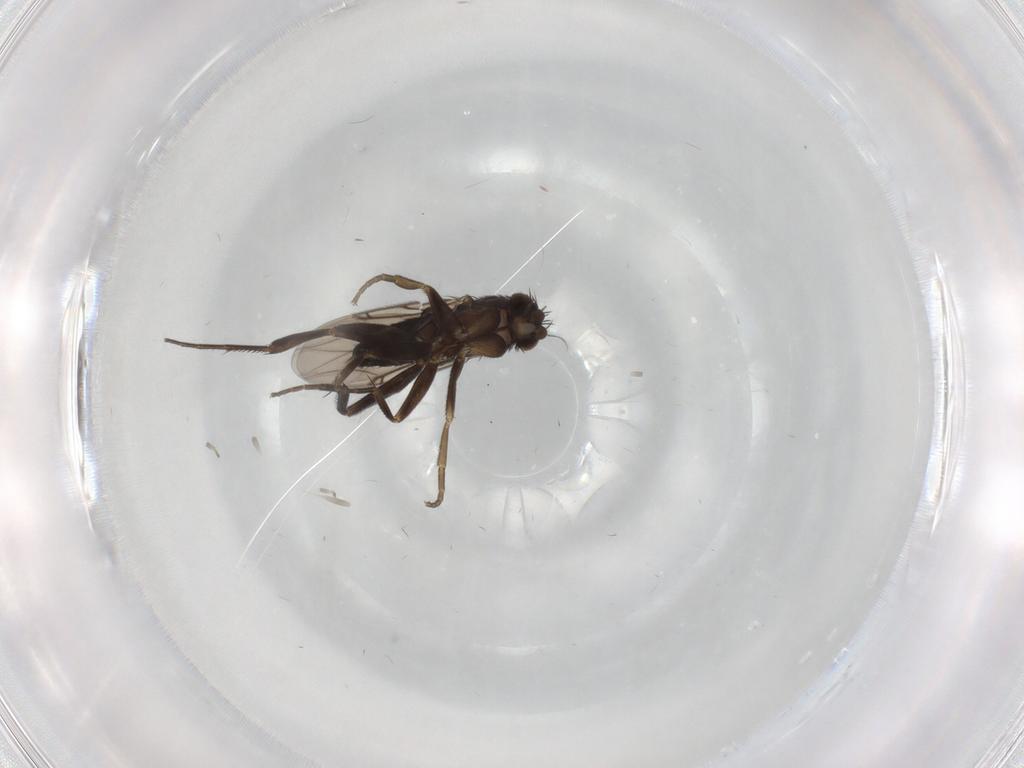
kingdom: Animalia
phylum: Arthropoda
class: Insecta
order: Diptera
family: Phoridae
